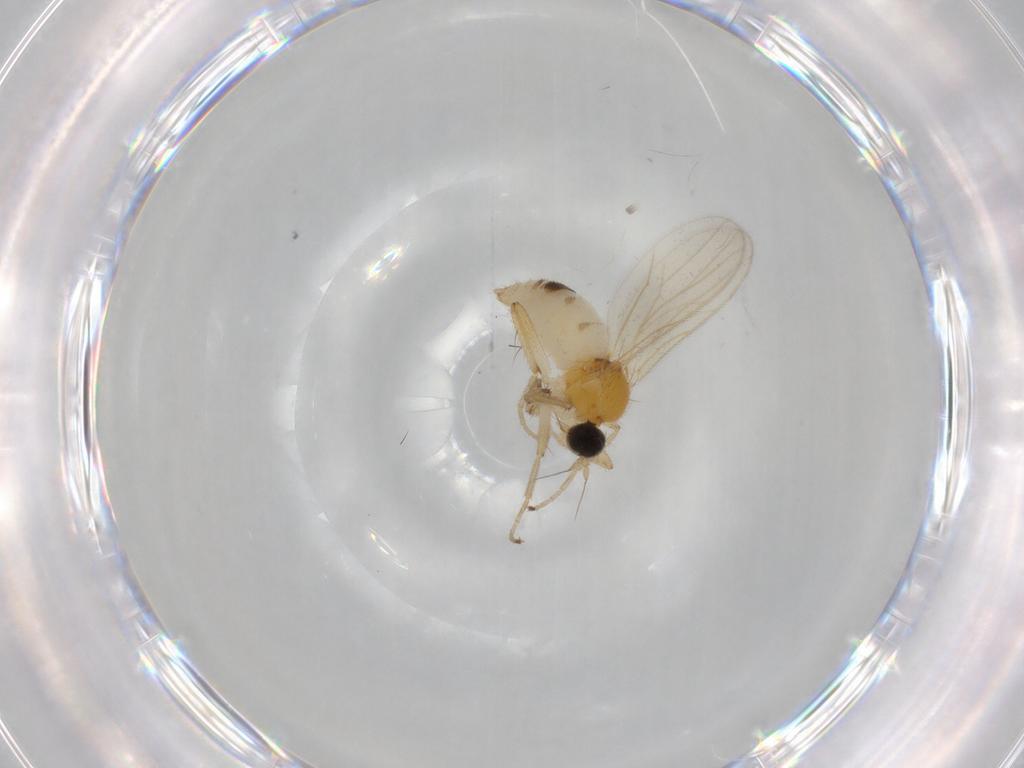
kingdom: Animalia
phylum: Arthropoda
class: Insecta
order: Diptera
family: Hybotidae
